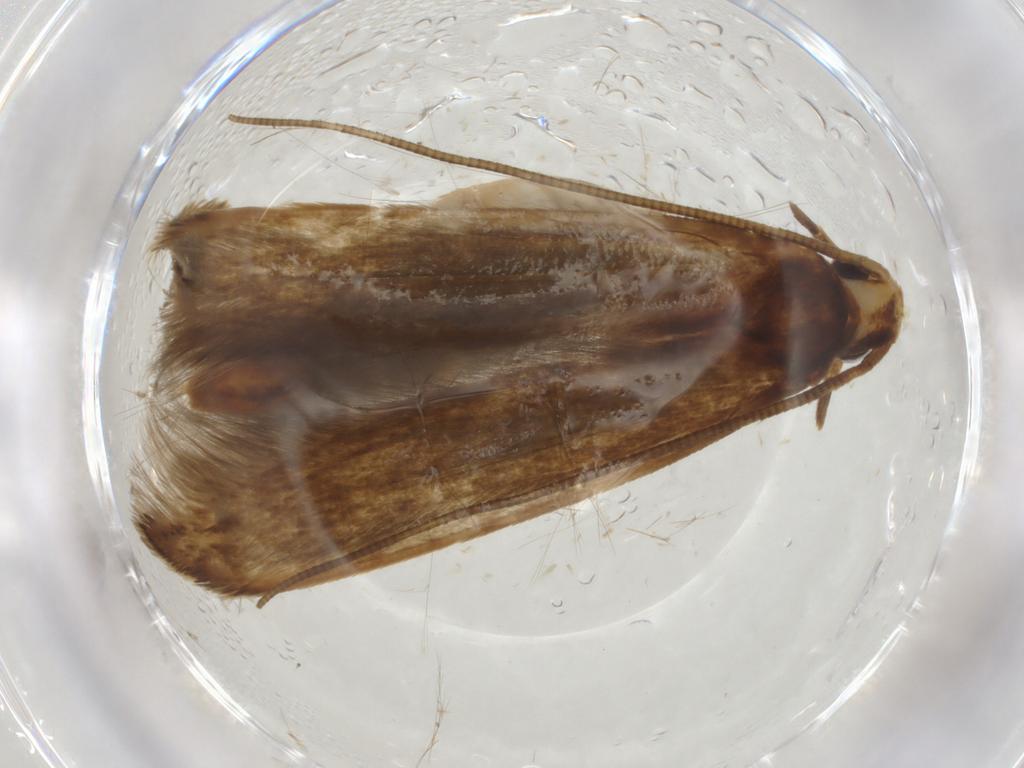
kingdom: Animalia
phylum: Arthropoda
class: Insecta
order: Lepidoptera
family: Tineidae
